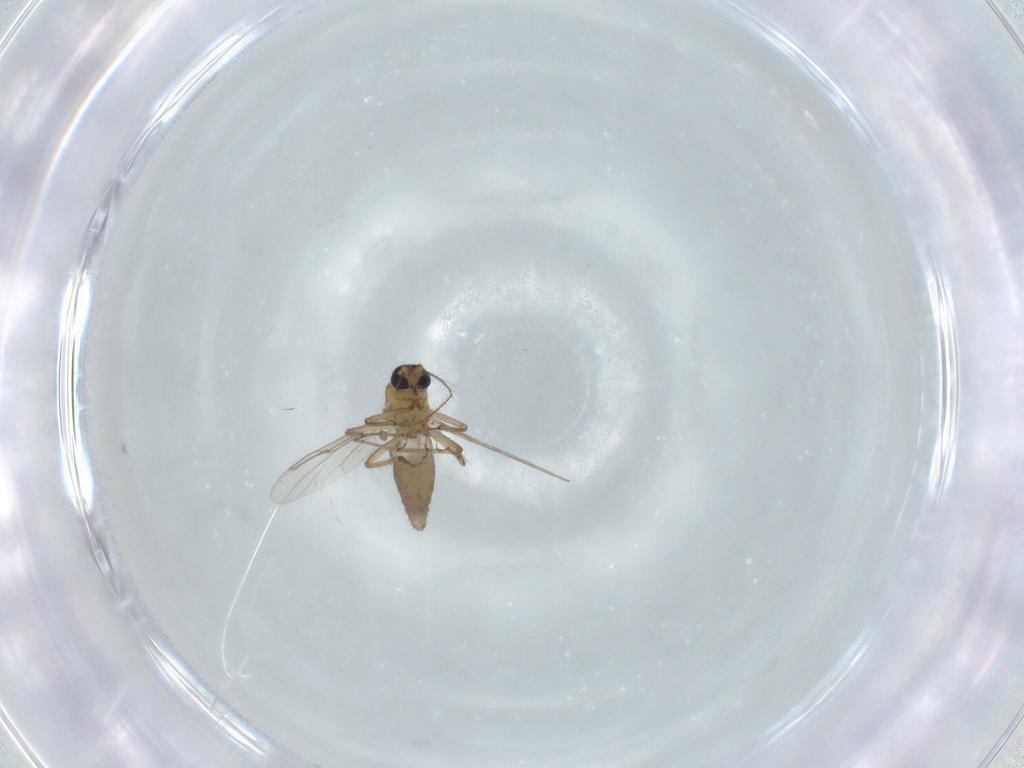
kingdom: Animalia
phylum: Arthropoda
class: Insecta
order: Diptera
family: Ceratopogonidae
